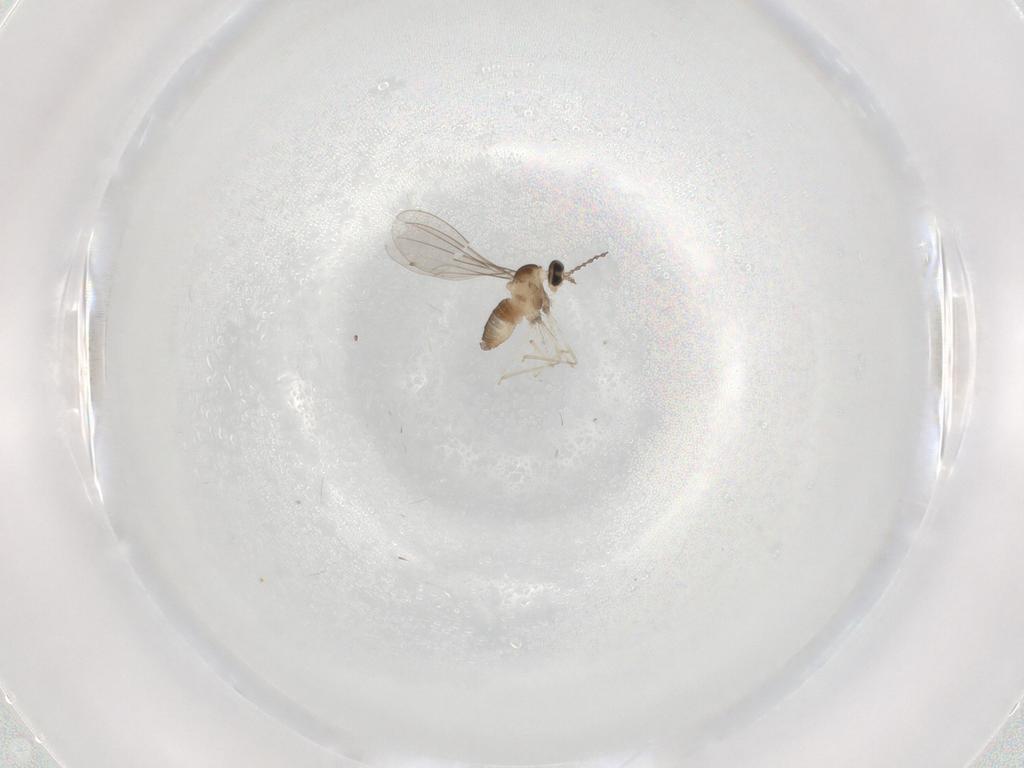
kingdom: Animalia
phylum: Arthropoda
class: Insecta
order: Diptera
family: Cecidomyiidae
